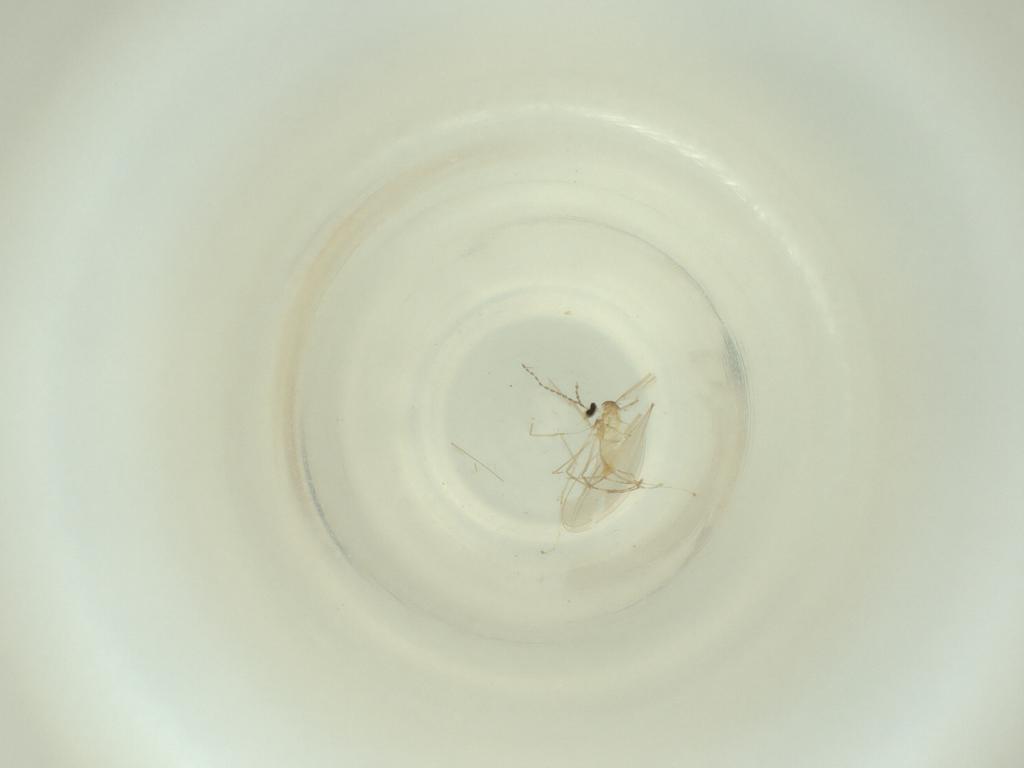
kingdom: Animalia
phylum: Arthropoda
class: Insecta
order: Diptera
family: Cecidomyiidae
